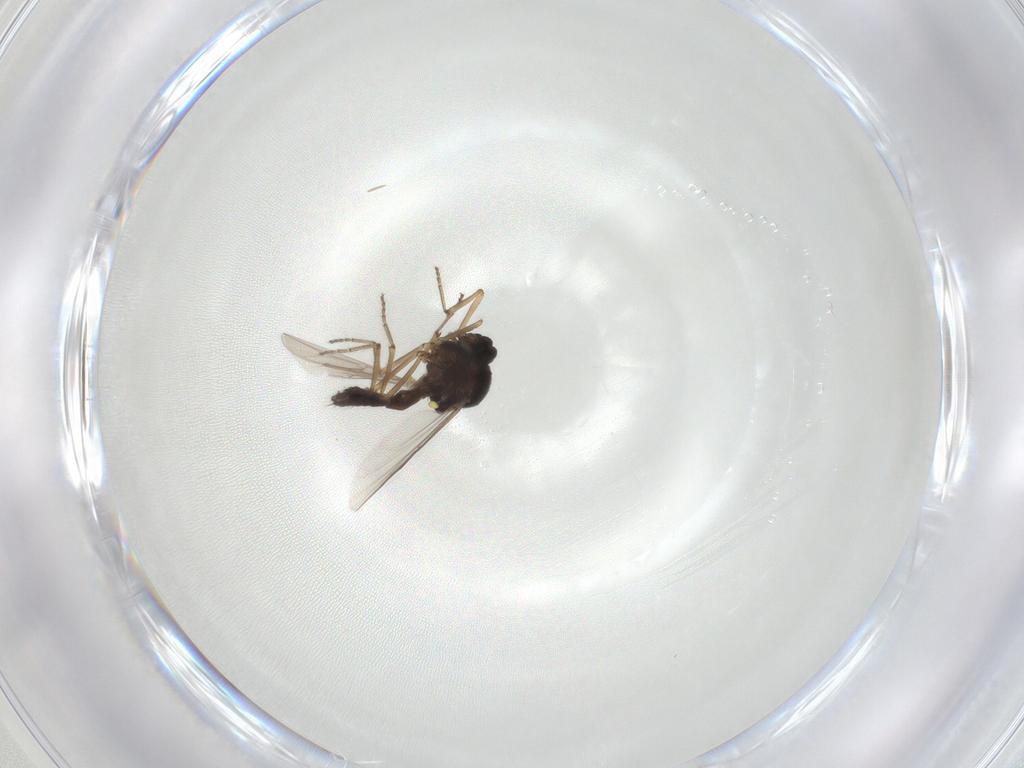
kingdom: Animalia
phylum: Arthropoda
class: Insecta
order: Diptera
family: Ceratopogonidae
